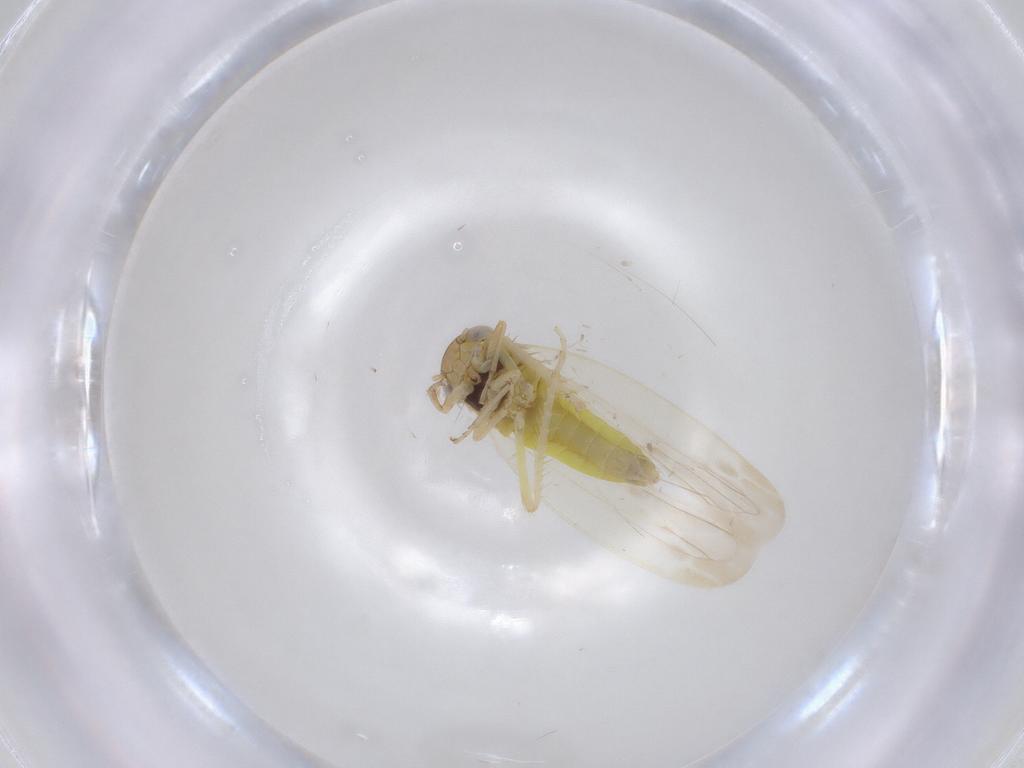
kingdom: Animalia
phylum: Arthropoda
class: Insecta
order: Hemiptera
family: Cicadellidae
